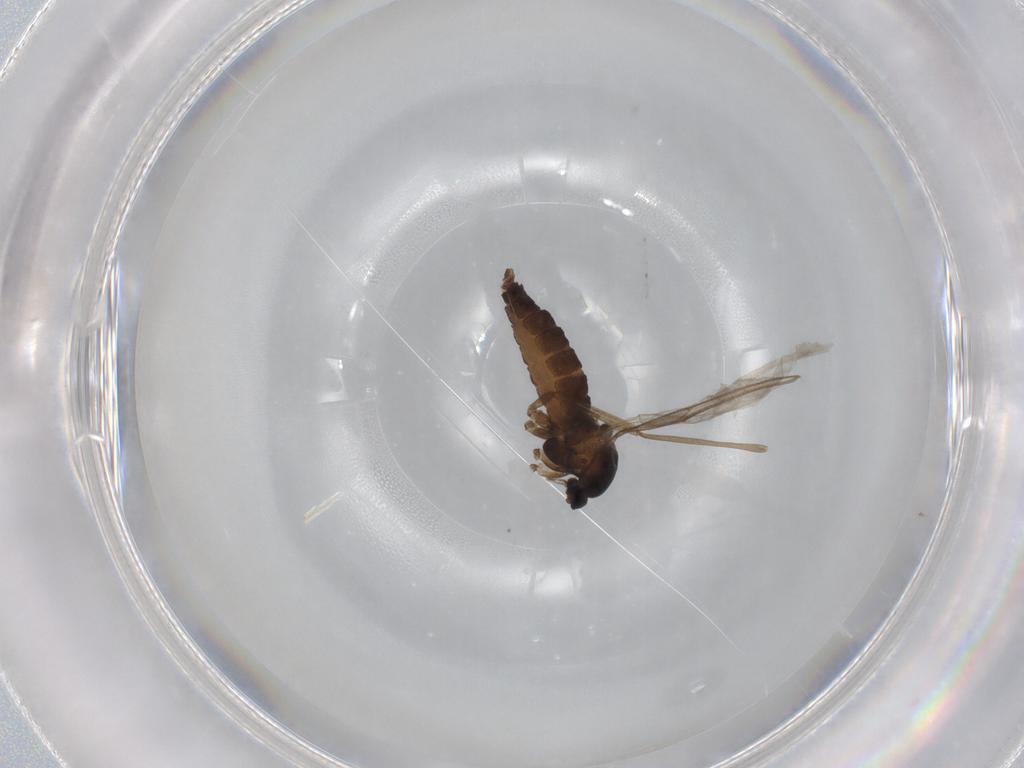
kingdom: Animalia
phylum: Arthropoda
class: Insecta
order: Diptera
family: Cecidomyiidae
